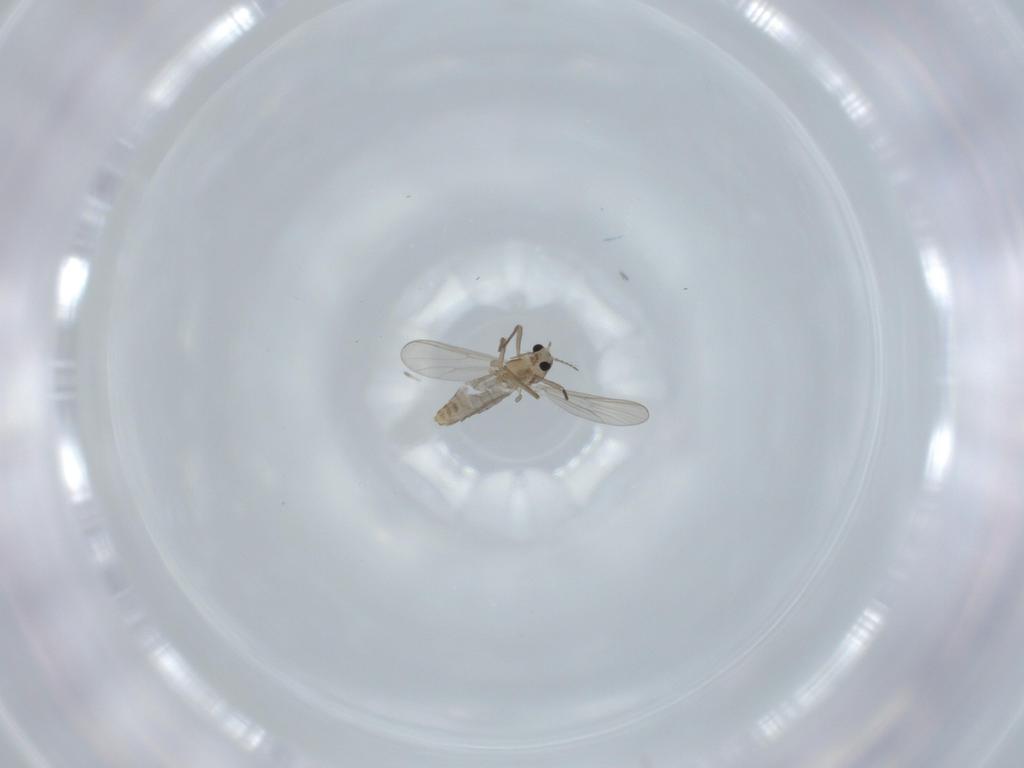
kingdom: Animalia
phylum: Arthropoda
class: Insecta
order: Diptera
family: Chironomidae
